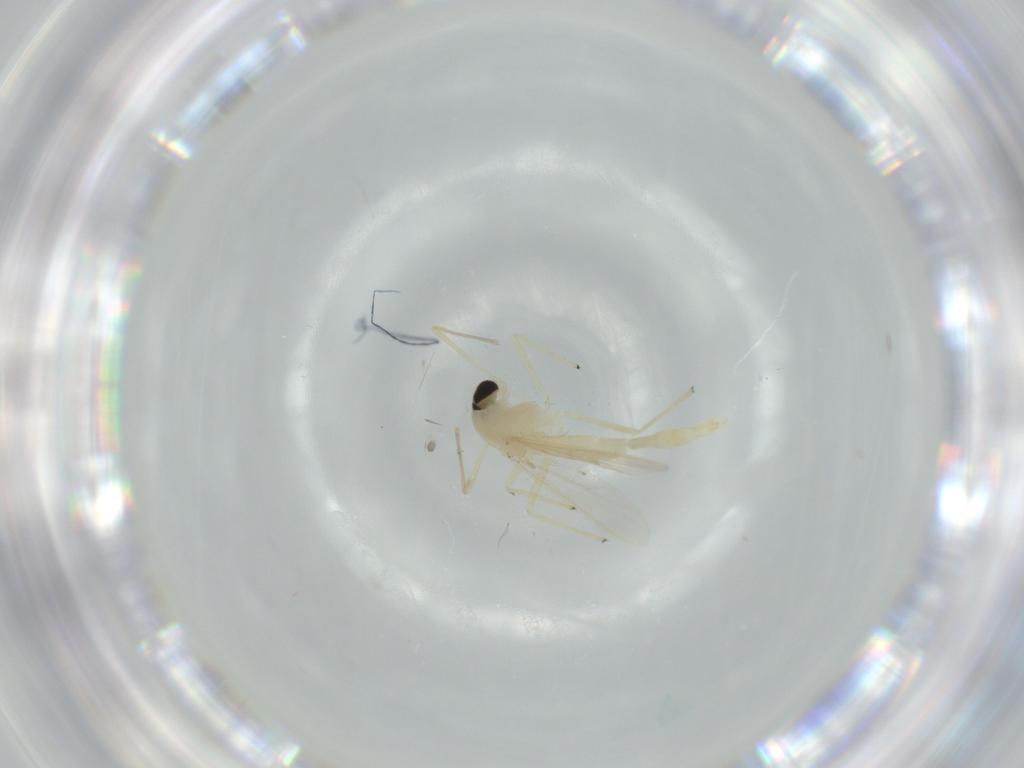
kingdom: Animalia
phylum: Arthropoda
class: Insecta
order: Diptera
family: Chironomidae
